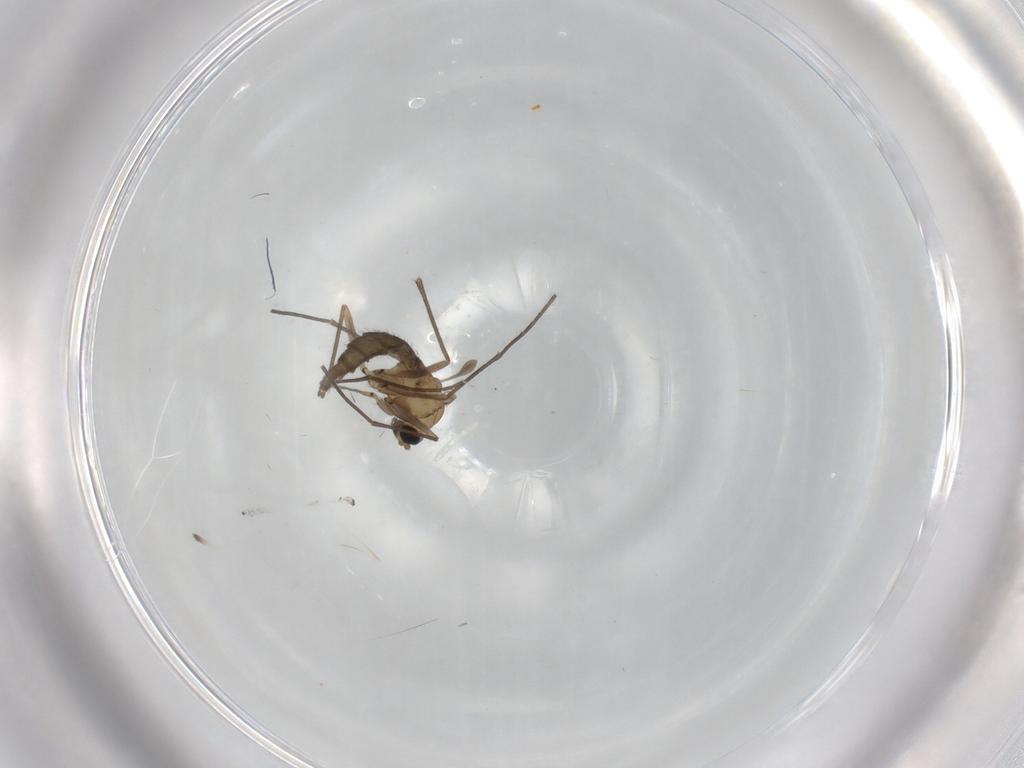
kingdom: Animalia
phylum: Arthropoda
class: Insecta
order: Diptera
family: Sciaridae
